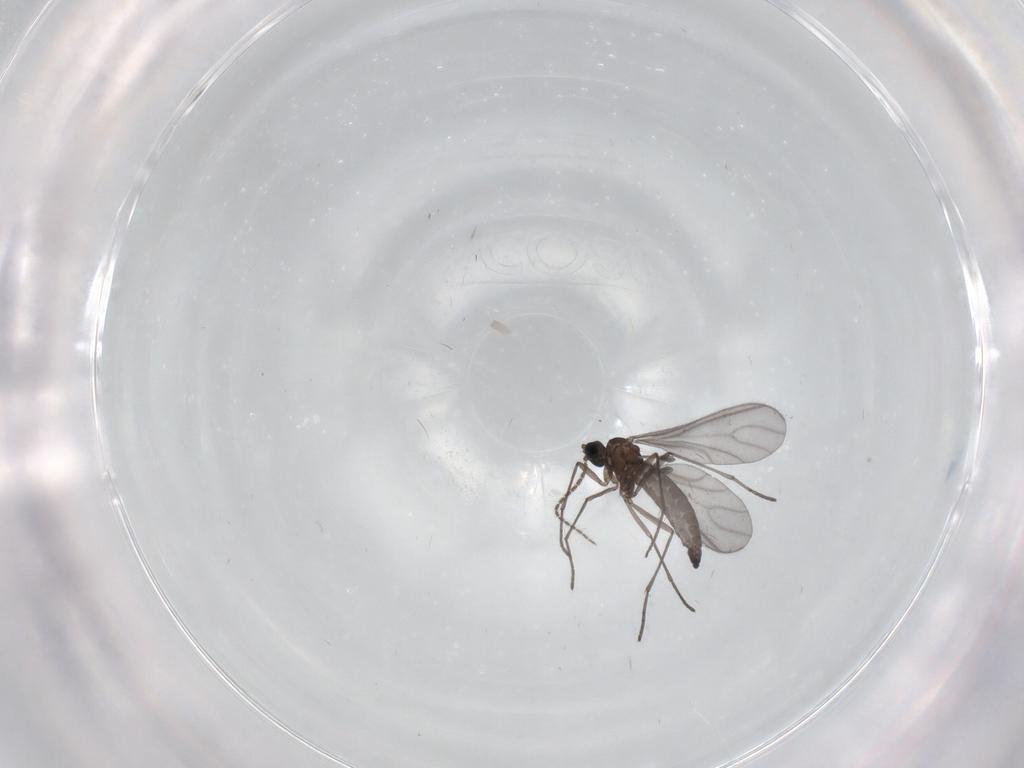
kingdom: Animalia
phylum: Arthropoda
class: Insecta
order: Diptera
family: Sciaridae
